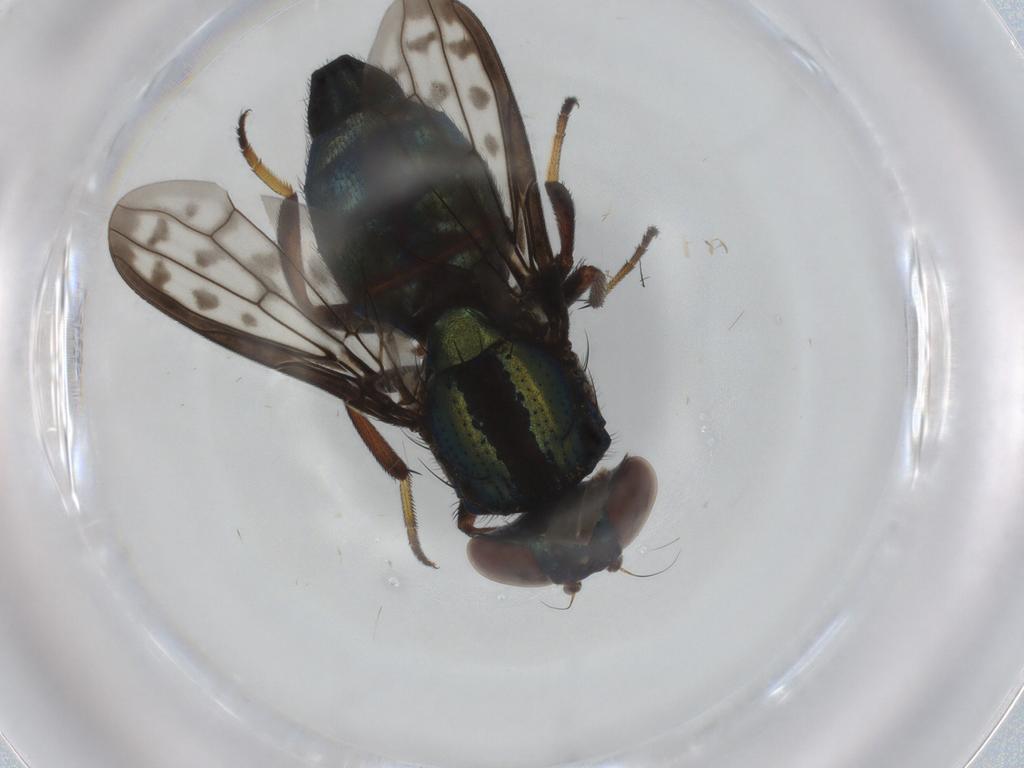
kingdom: Animalia
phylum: Arthropoda
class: Insecta
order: Diptera
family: Ulidiidae
